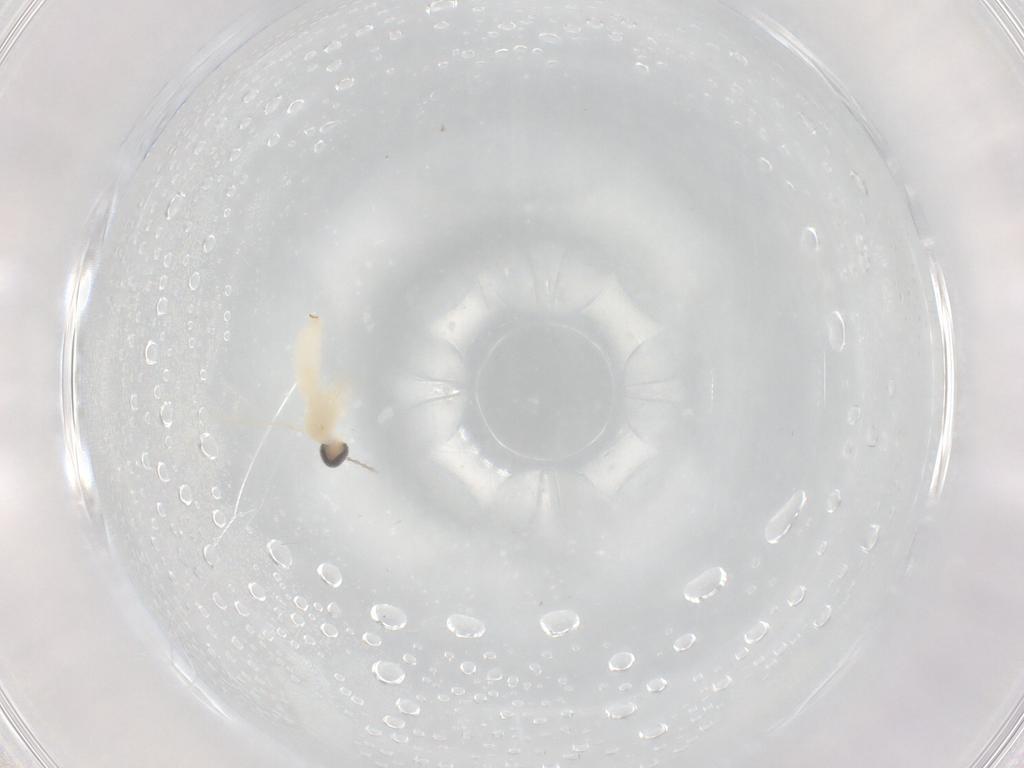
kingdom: Animalia
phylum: Arthropoda
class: Insecta
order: Diptera
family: Cecidomyiidae
